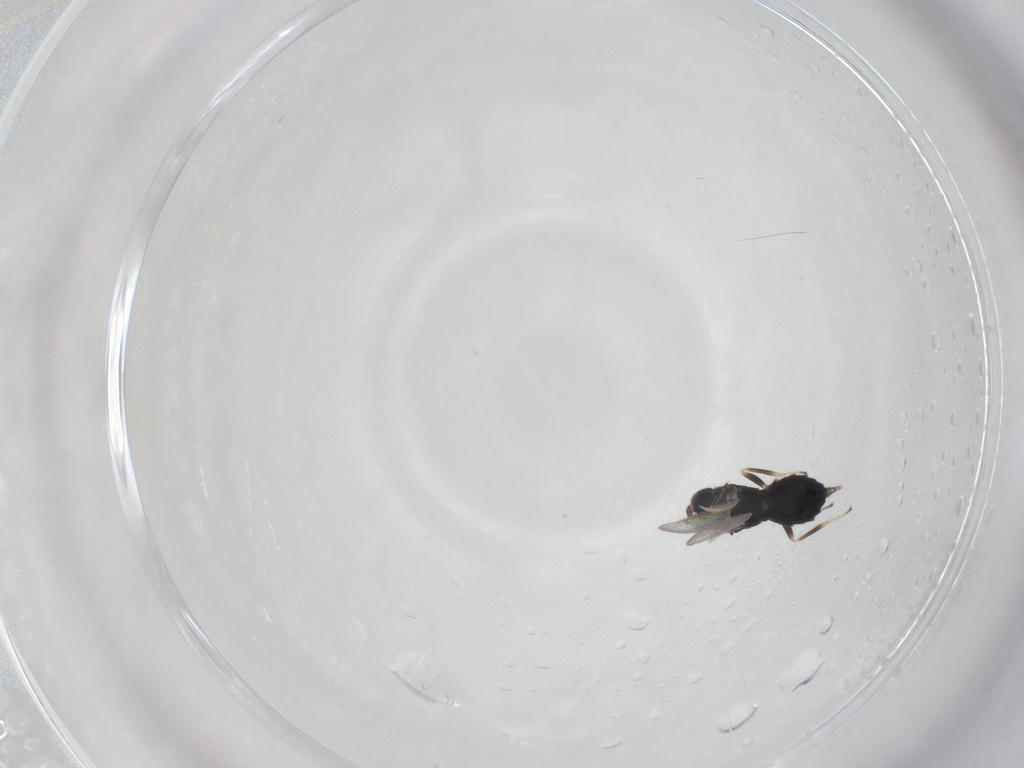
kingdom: Animalia
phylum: Arthropoda
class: Insecta
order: Hymenoptera
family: Eulophidae
